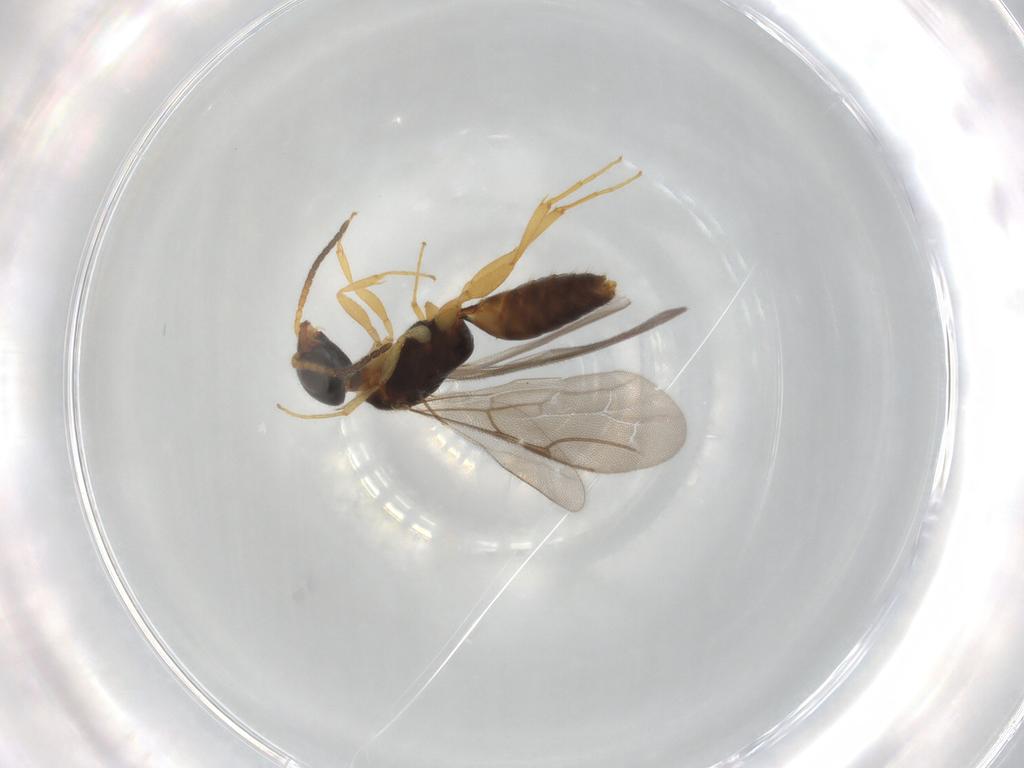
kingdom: Animalia
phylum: Arthropoda
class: Insecta
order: Hymenoptera
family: Bethylidae
